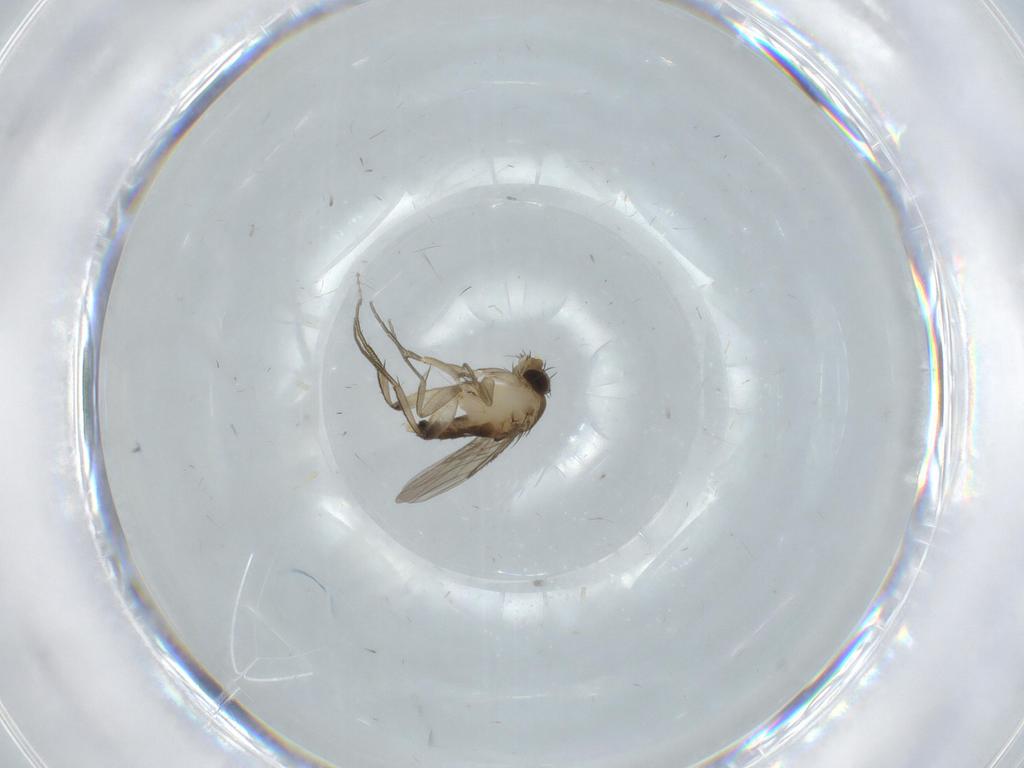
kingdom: Animalia
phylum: Arthropoda
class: Insecta
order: Diptera
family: Phoridae
